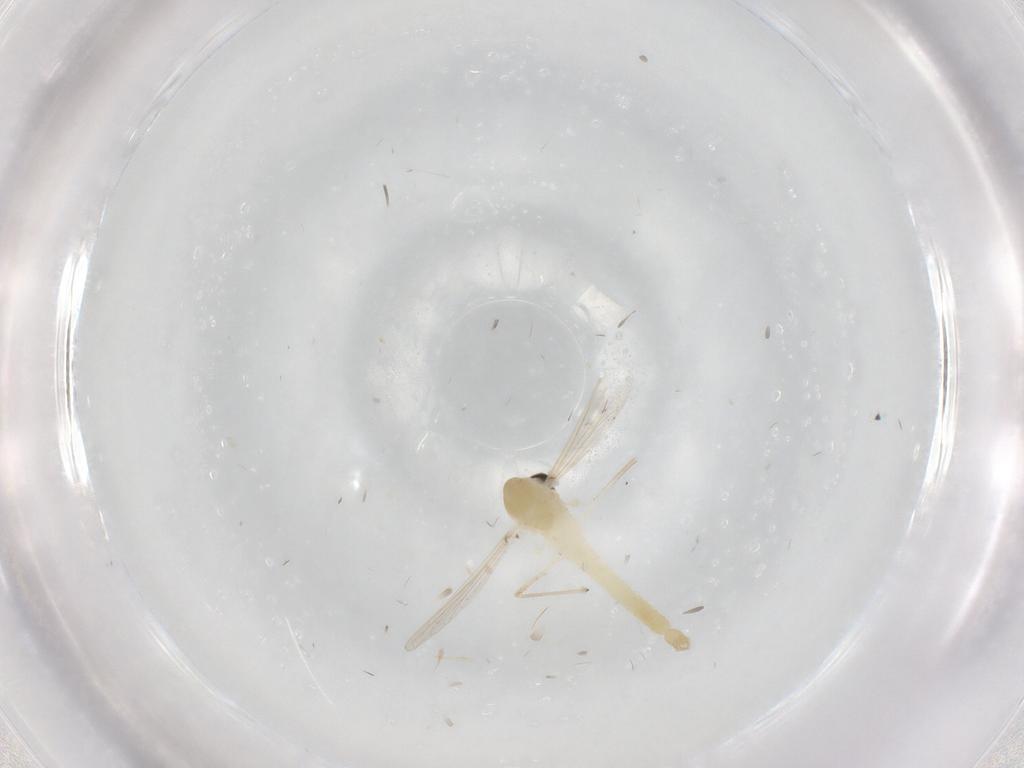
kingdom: Animalia
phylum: Arthropoda
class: Insecta
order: Diptera
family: Chironomidae
